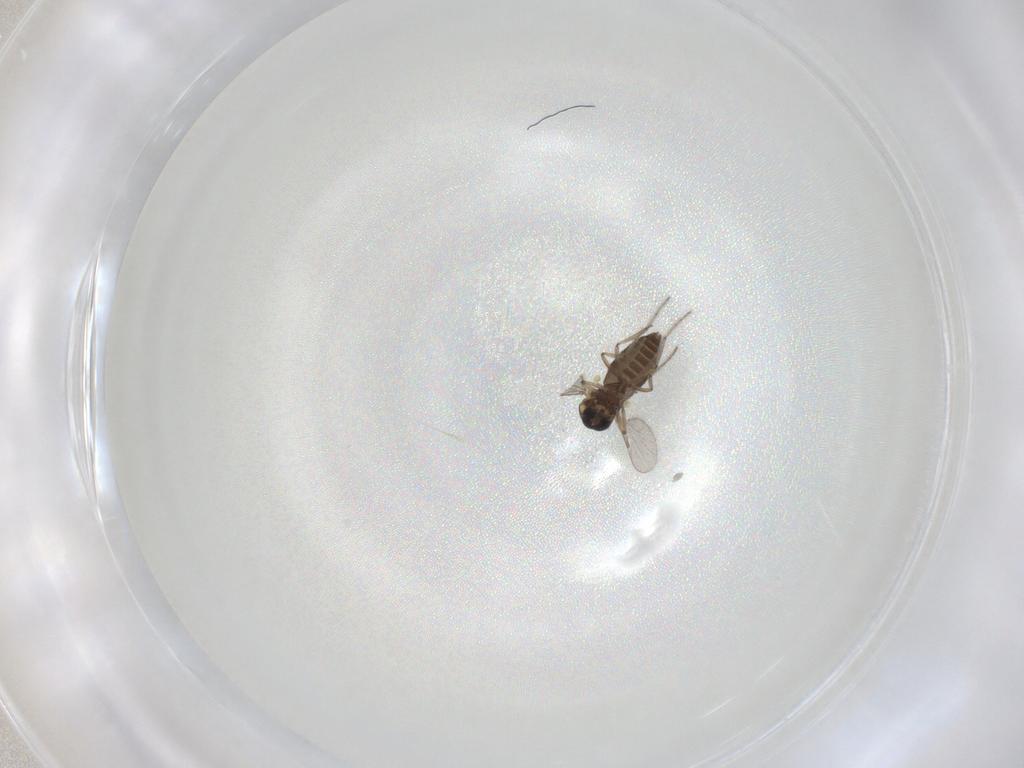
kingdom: Animalia
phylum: Arthropoda
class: Insecta
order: Diptera
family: Ceratopogonidae
